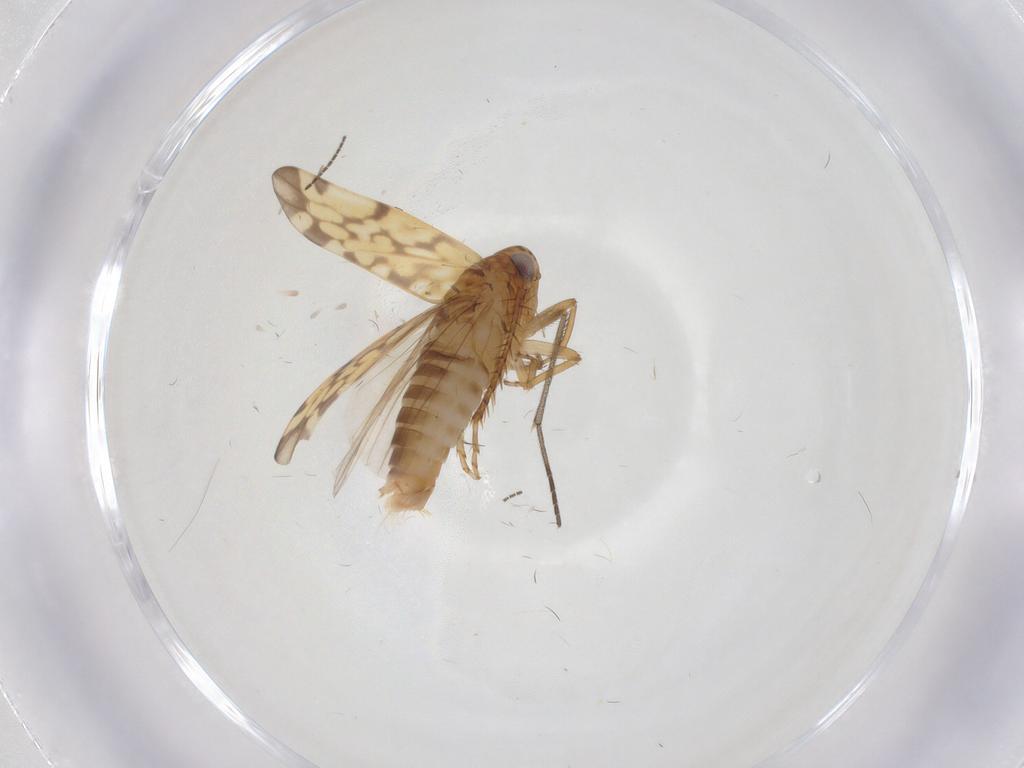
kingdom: Animalia
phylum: Arthropoda
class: Insecta
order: Hemiptera
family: Cicadellidae
